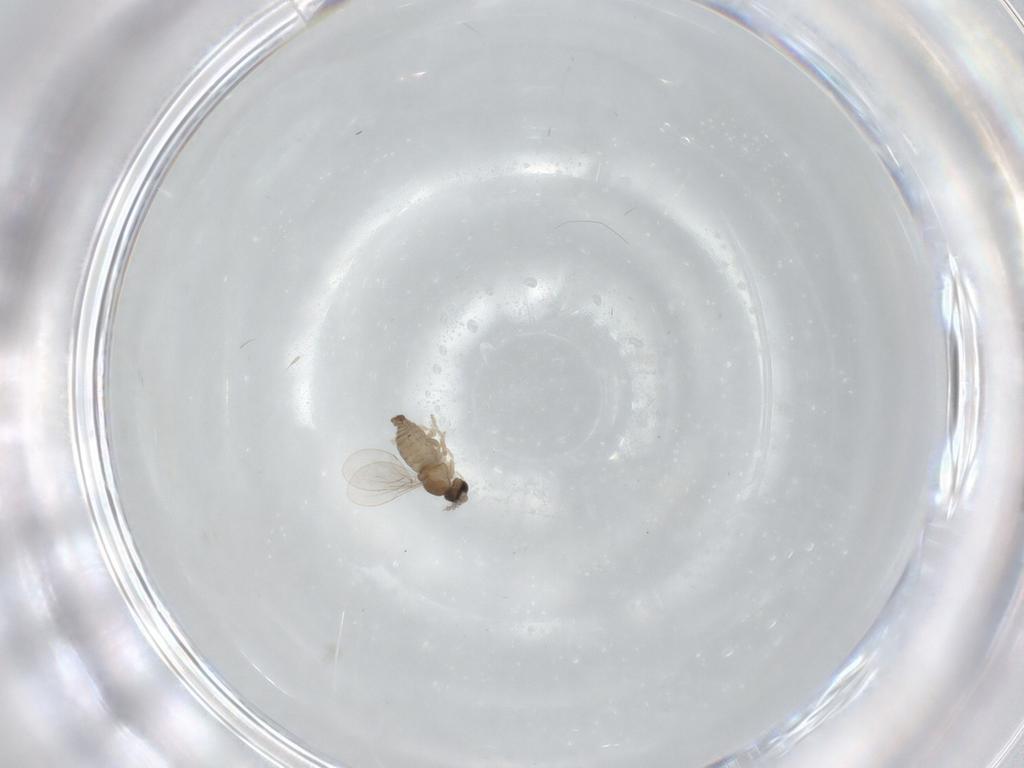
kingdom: Animalia
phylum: Arthropoda
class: Insecta
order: Diptera
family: Cecidomyiidae
